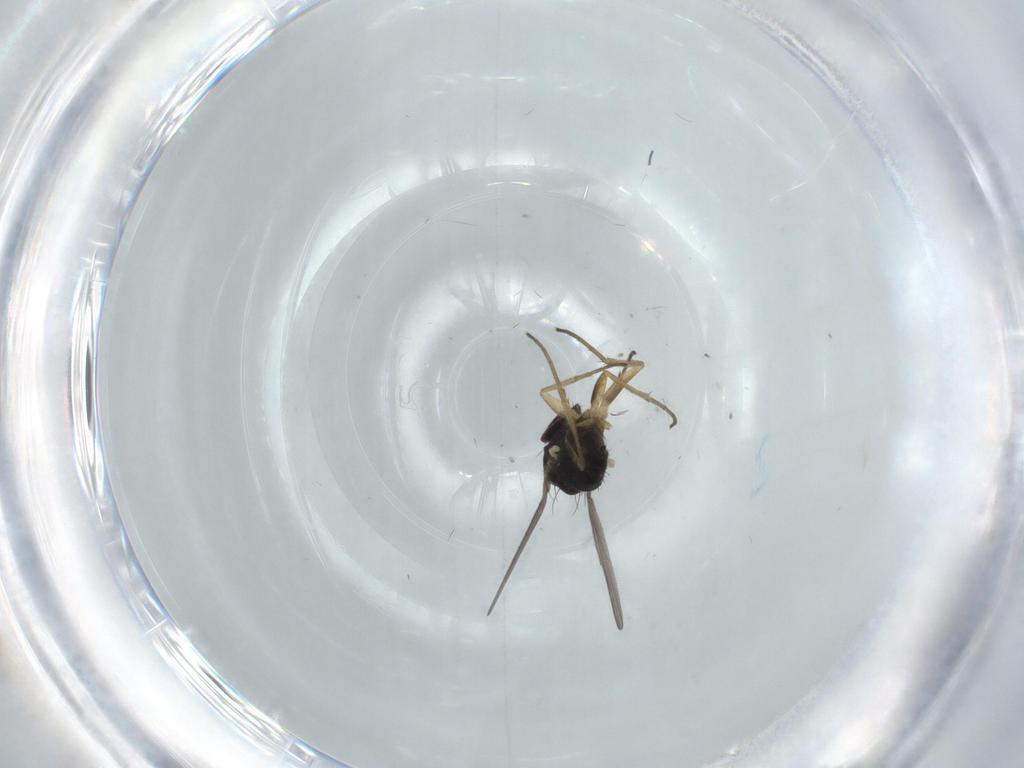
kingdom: Animalia
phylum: Arthropoda
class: Insecta
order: Diptera
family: Dolichopodidae
